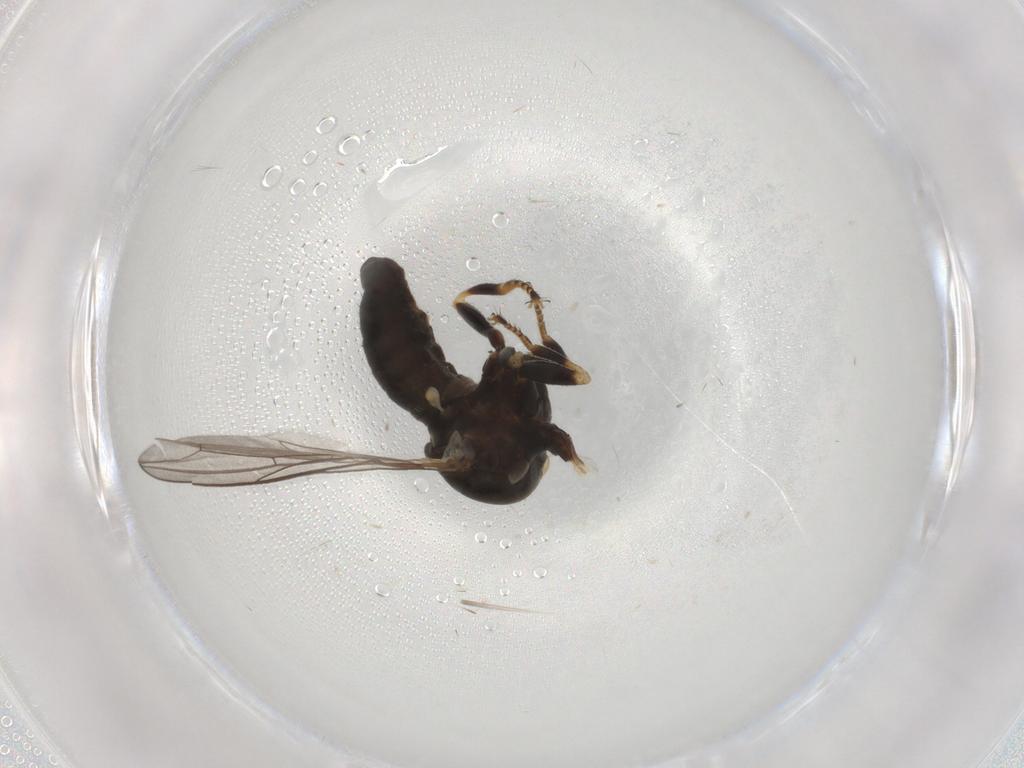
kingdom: Animalia
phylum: Arthropoda
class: Insecta
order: Diptera
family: Pipunculidae
